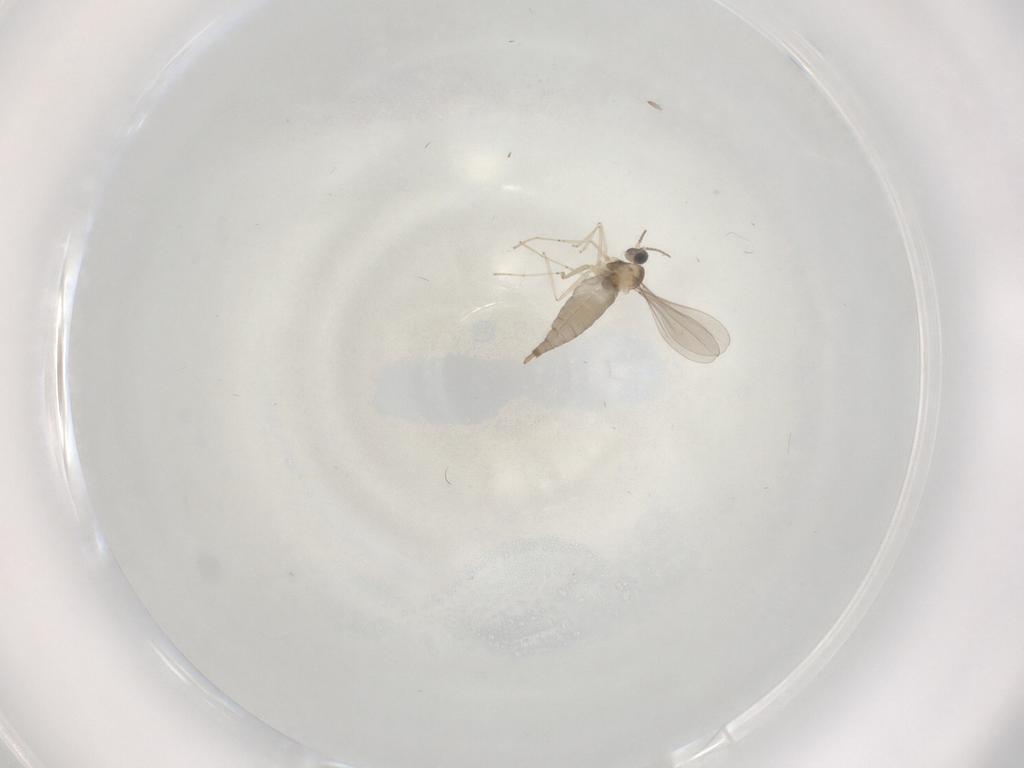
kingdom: Animalia
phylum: Arthropoda
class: Insecta
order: Diptera
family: Cecidomyiidae
